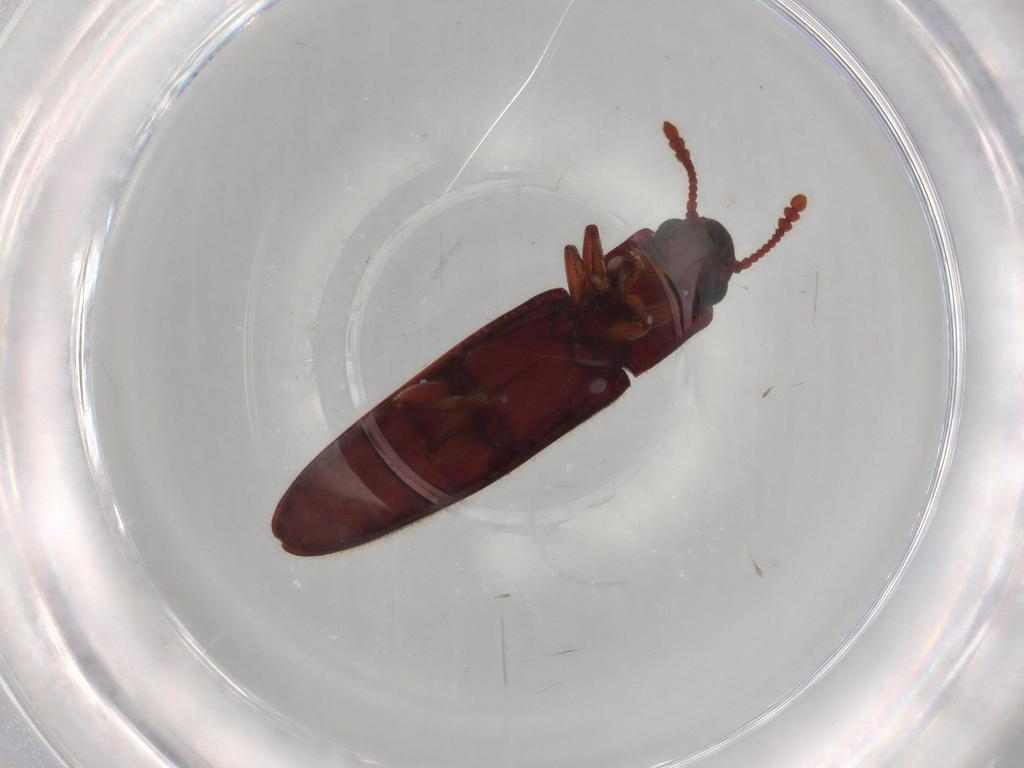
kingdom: Animalia
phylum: Arthropoda
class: Insecta
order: Coleoptera
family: Erotylidae
